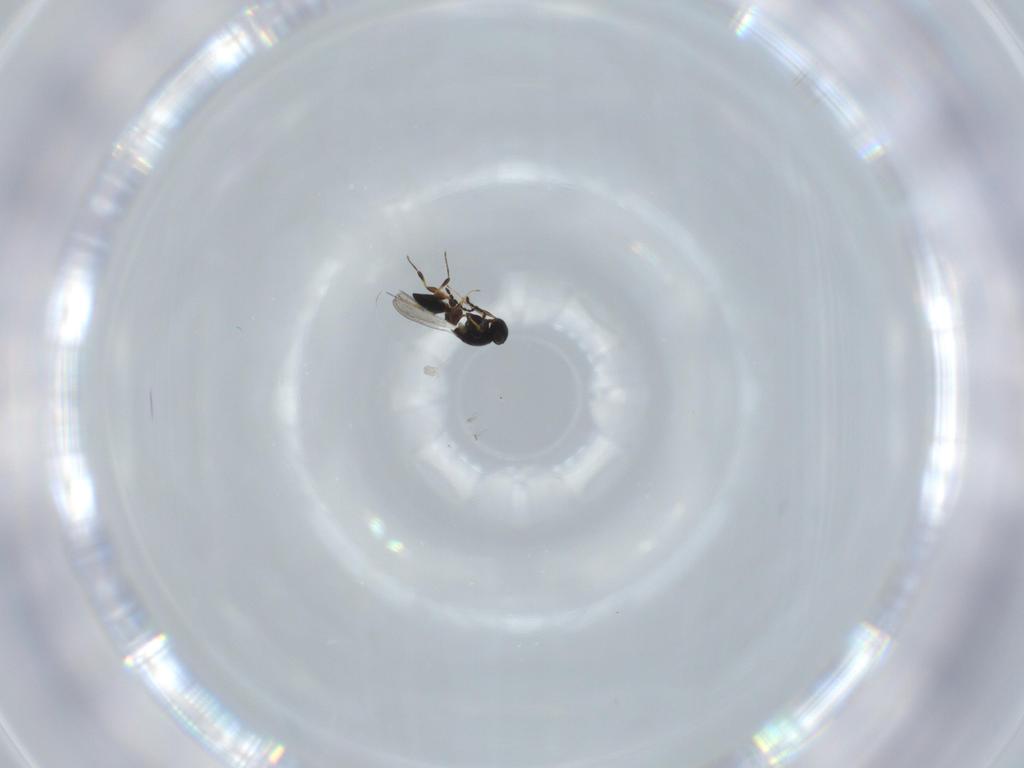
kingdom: Animalia
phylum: Arthropoda
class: Insecta
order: Hymenoptera
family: Platygastridae
